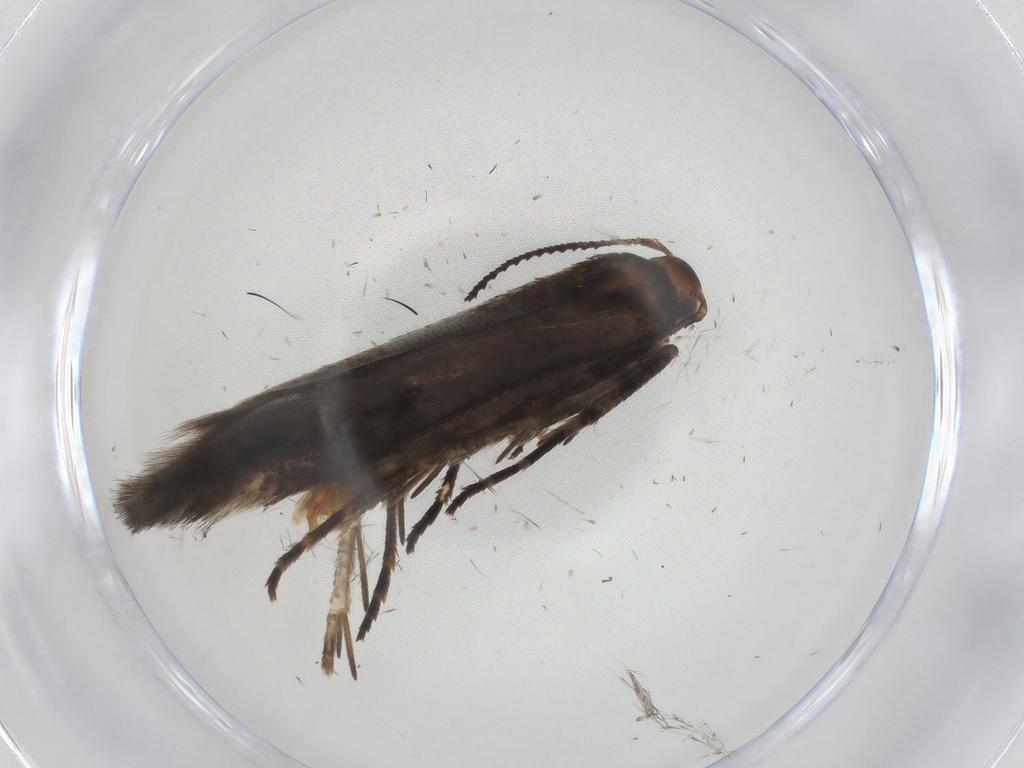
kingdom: Animalia
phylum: Arthropoda
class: Insecta
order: Lepidoptera
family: Gelechiidae
